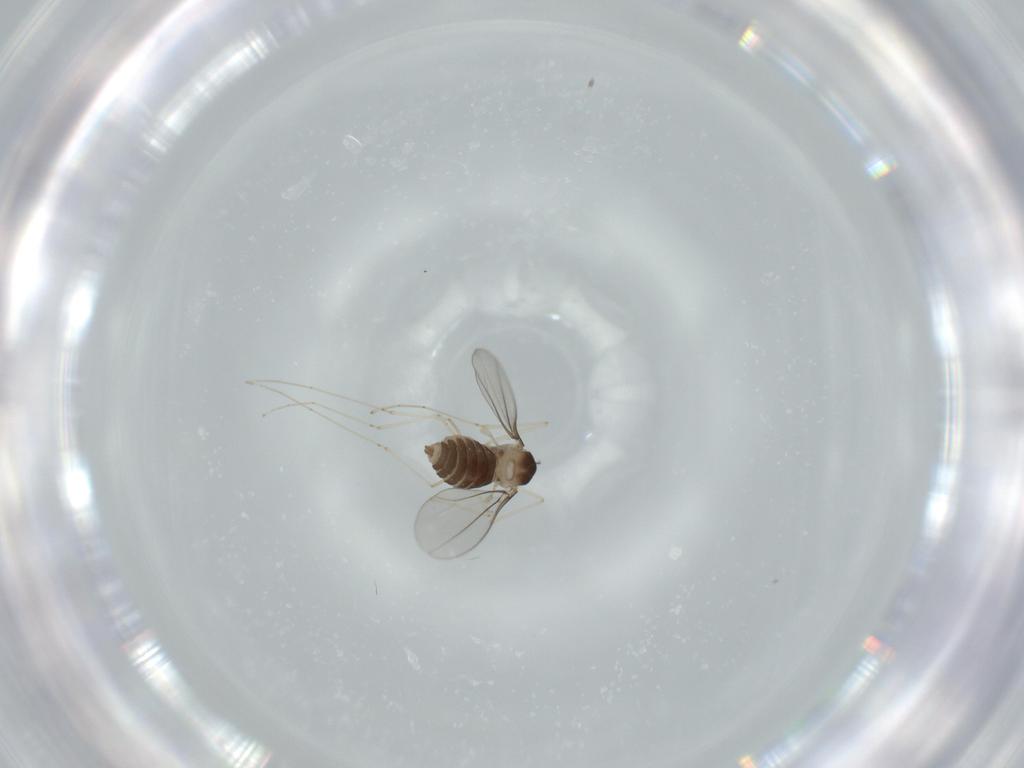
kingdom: Animalia
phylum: Arthropoda
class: Insecta
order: Diptera
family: Cecidomyiidae
